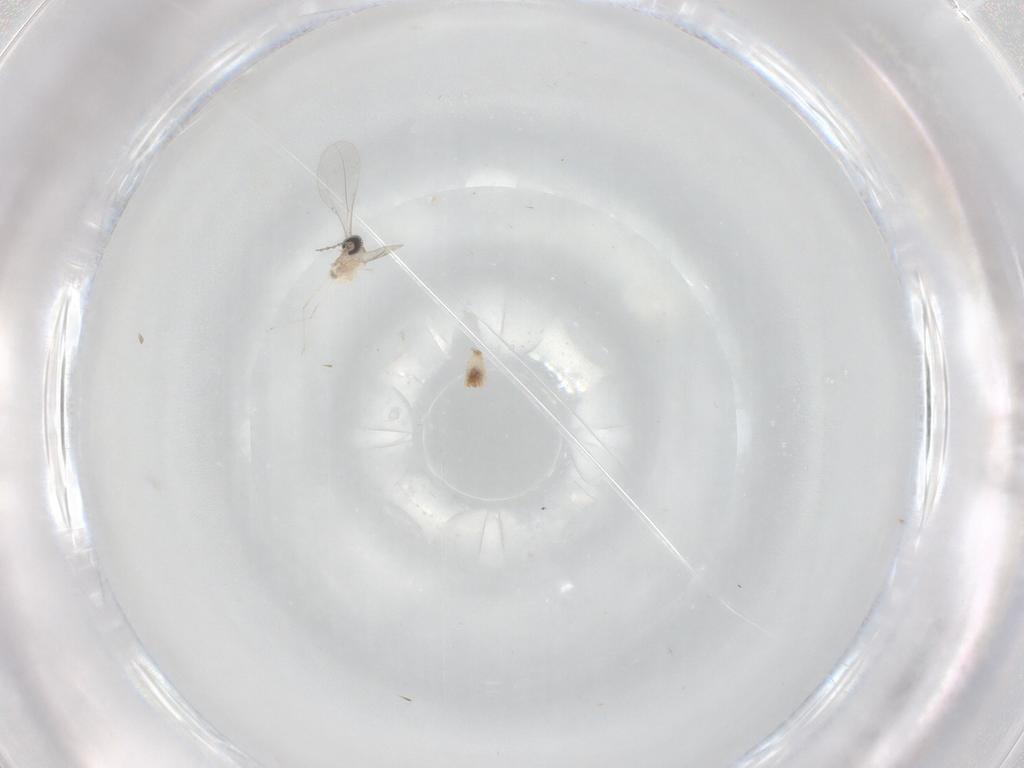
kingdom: Animalia
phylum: Arthropoda
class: Insecta
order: Diptera
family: Cecidomyiidae
